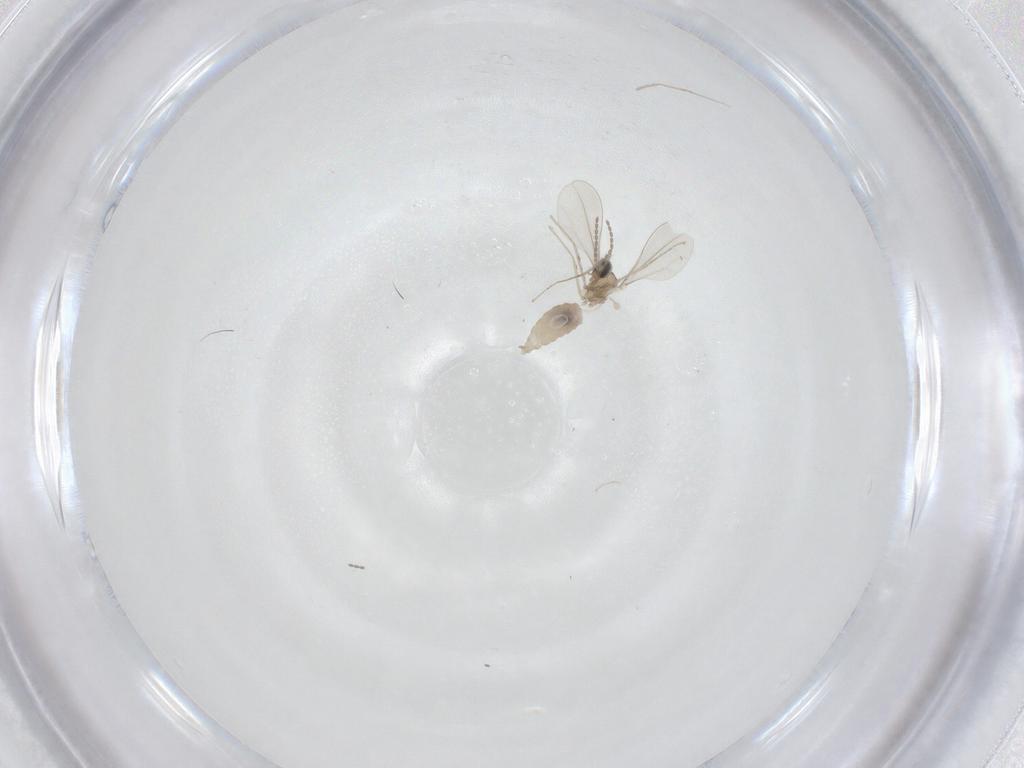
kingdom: Animalia
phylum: Arthropoda
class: Insecta
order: Diptera
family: Cecidomyiidae
